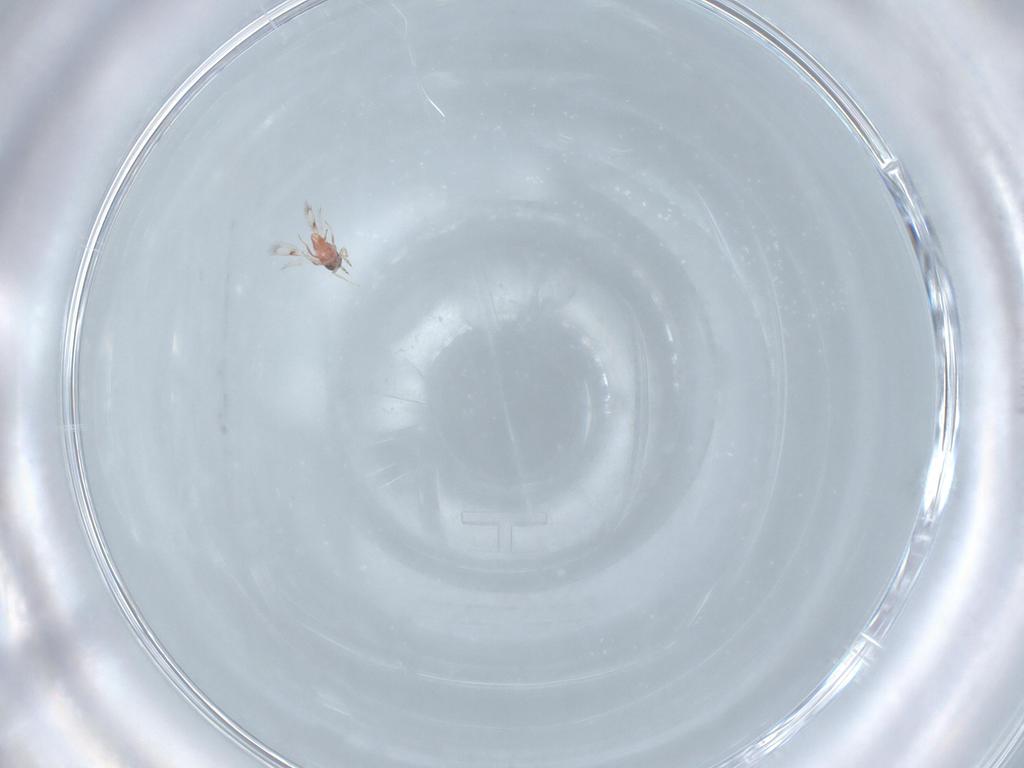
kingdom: Animalia
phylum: Arthropoda
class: Insecta
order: Hymenoptera
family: Trichogrammatidae
